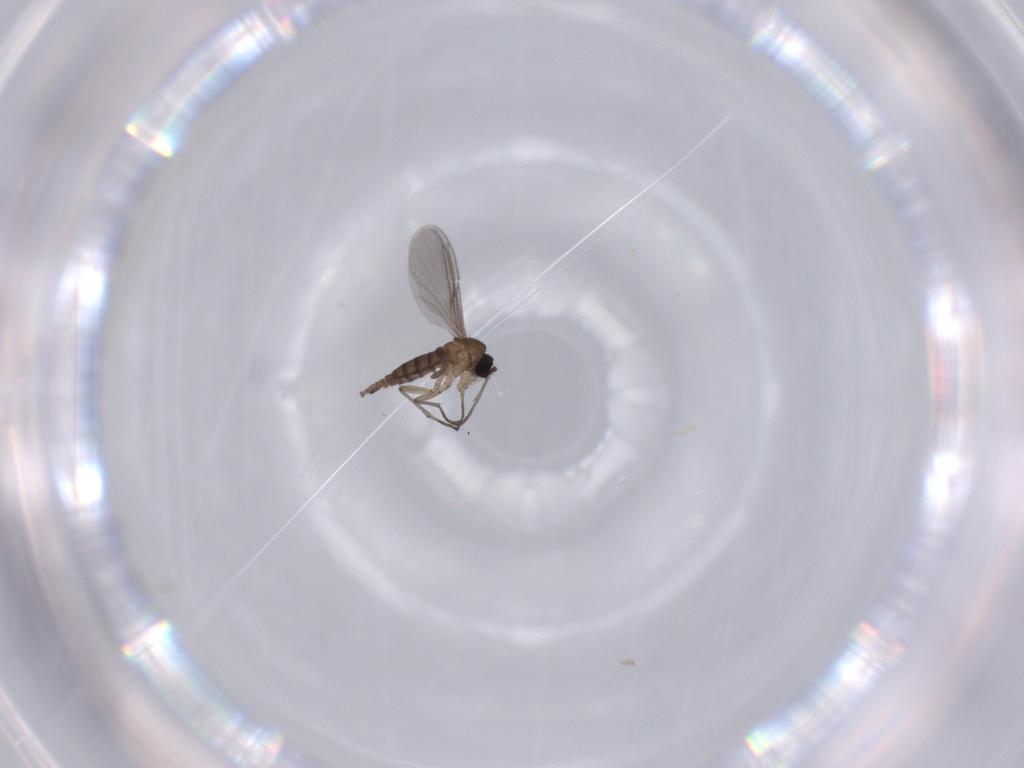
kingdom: Animalia
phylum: Arthropoda
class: Insecta
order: Diptera
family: Sciaridae
